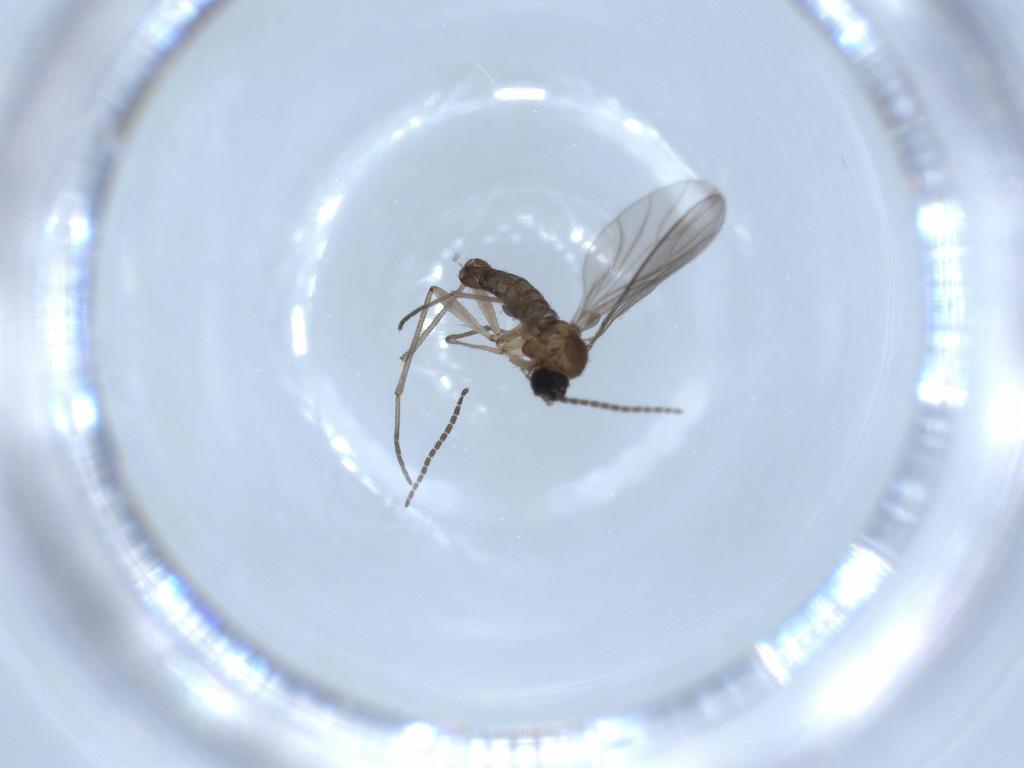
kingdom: Animalia
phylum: Arthropoda
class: Insecta
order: Diptera
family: Sciaridae
